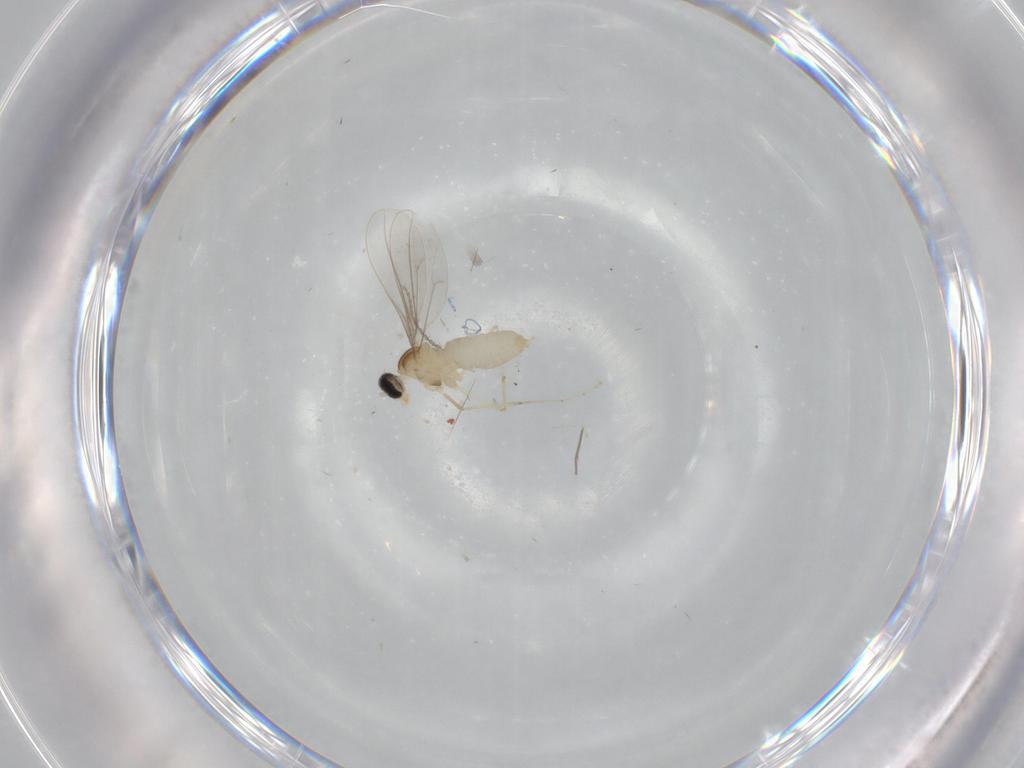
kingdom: Animalia
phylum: Arthropoda
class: Insecta
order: Diptera
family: Cecidomyiidae
